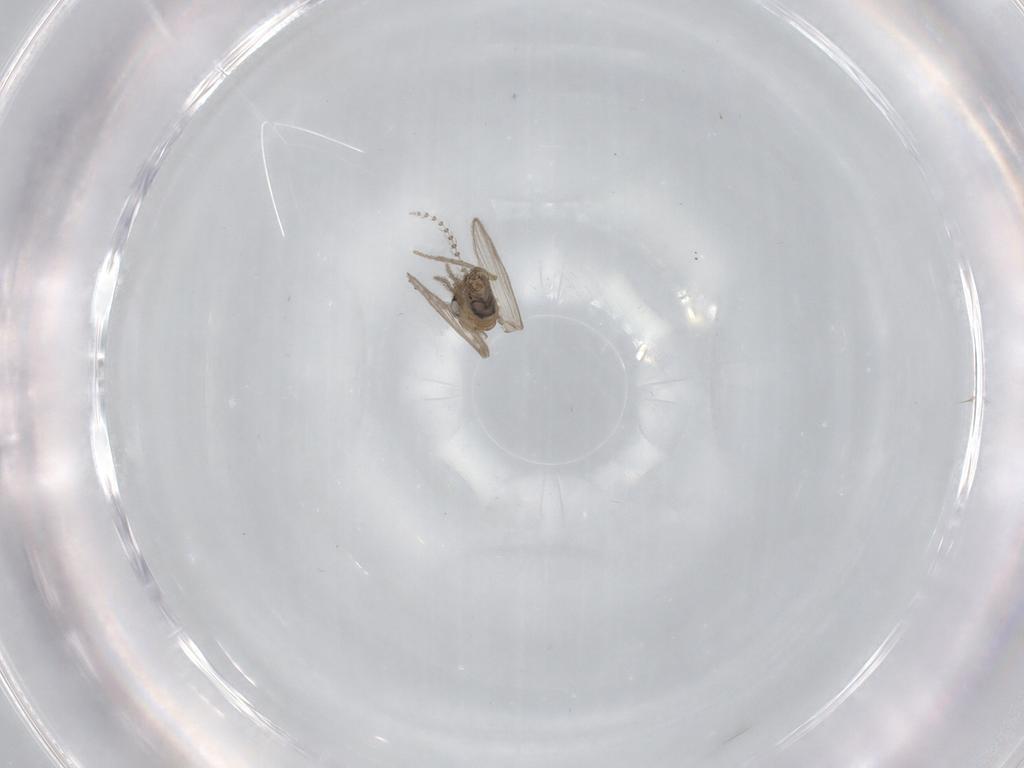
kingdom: Animalia
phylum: Arthropoda
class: Insecta
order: Diptera
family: Psychodidae
